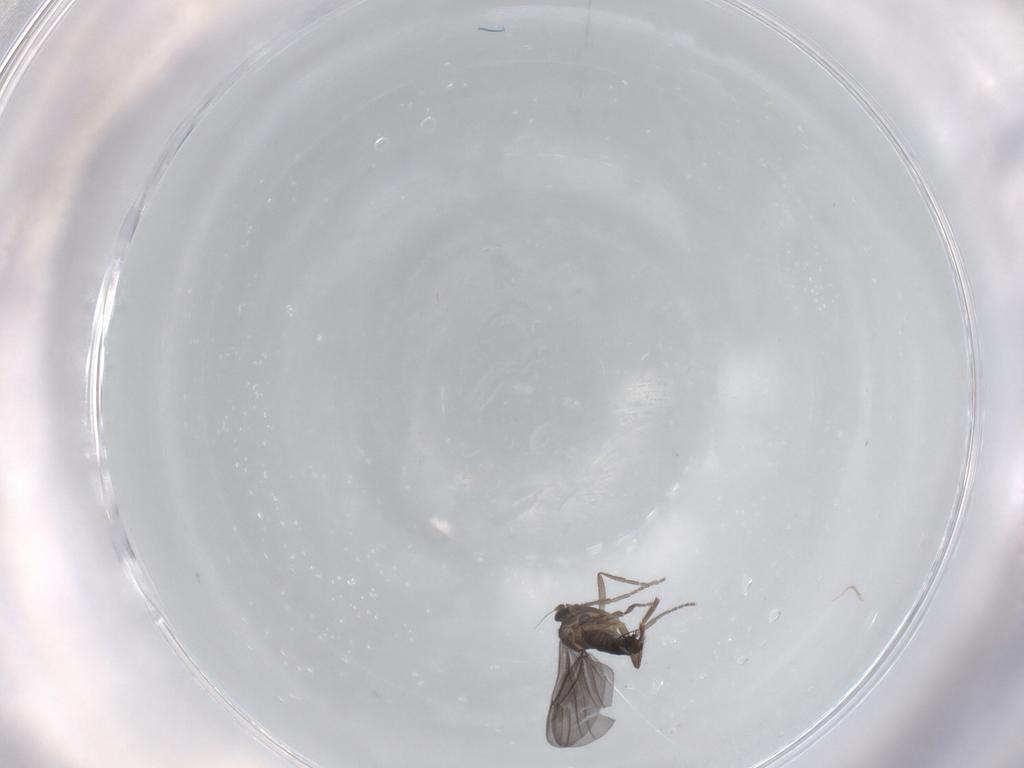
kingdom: Animalia
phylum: Arthropoda
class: Insecta
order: Diptera
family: Phoridae
